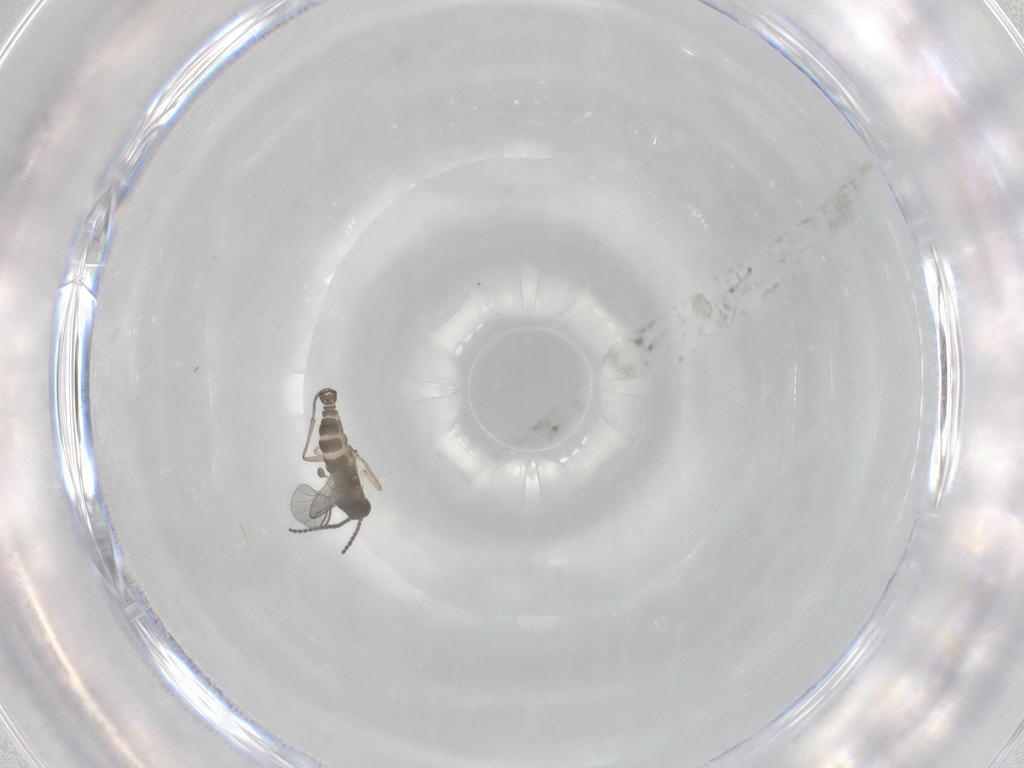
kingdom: Animalia
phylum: Arthropoda
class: Insecta
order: Diptera
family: Sciaridae
